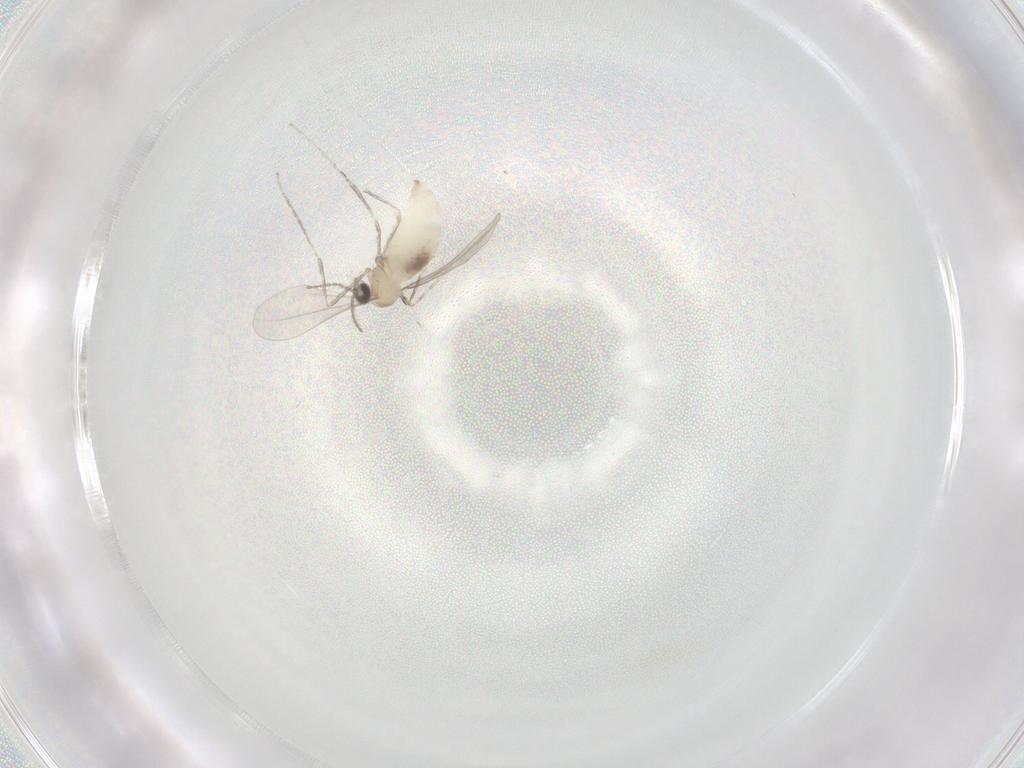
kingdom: Animalia
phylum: Arthropoda
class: Insecta
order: Diptera
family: Cecidomyiidae
